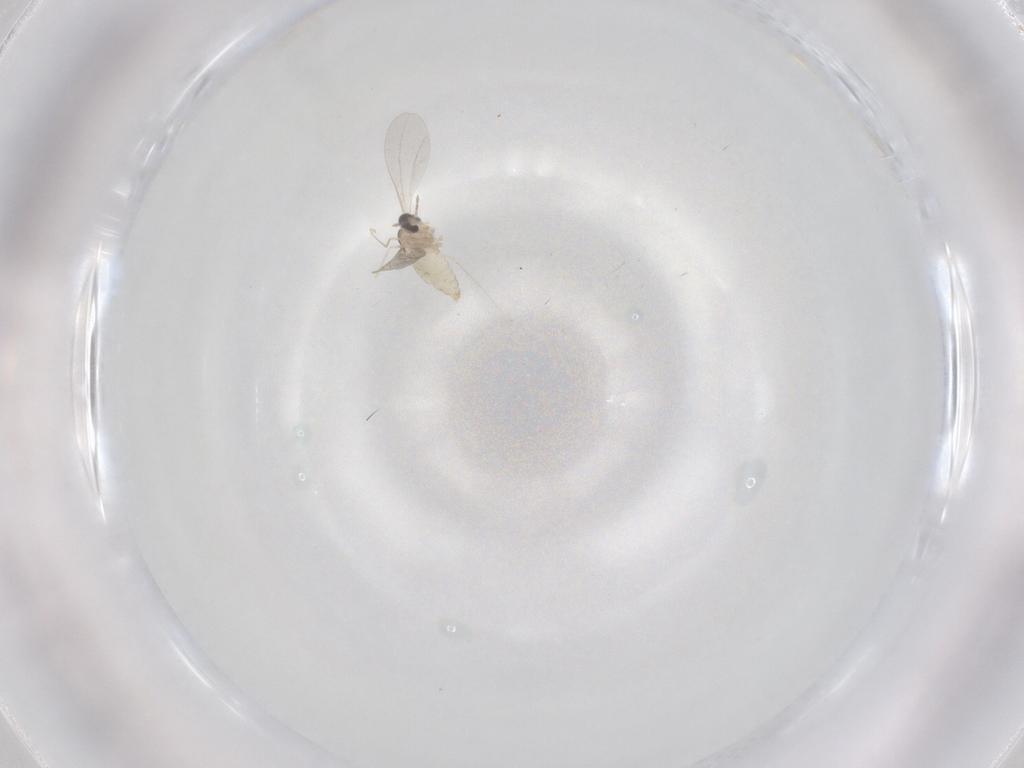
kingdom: Animalia
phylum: Arthropoda
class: Insecta
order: Diptera
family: Cecidomyiidae
